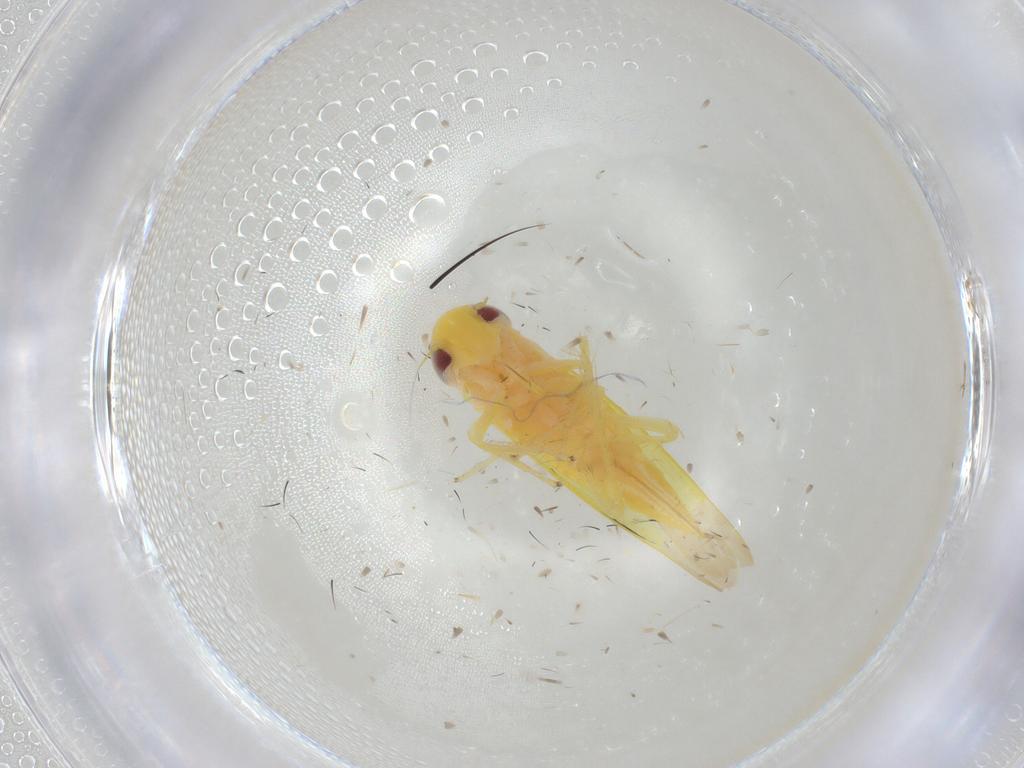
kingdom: Animalia
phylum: Arthropoda
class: Insecta
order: Hemiptera
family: Cicadellidae
